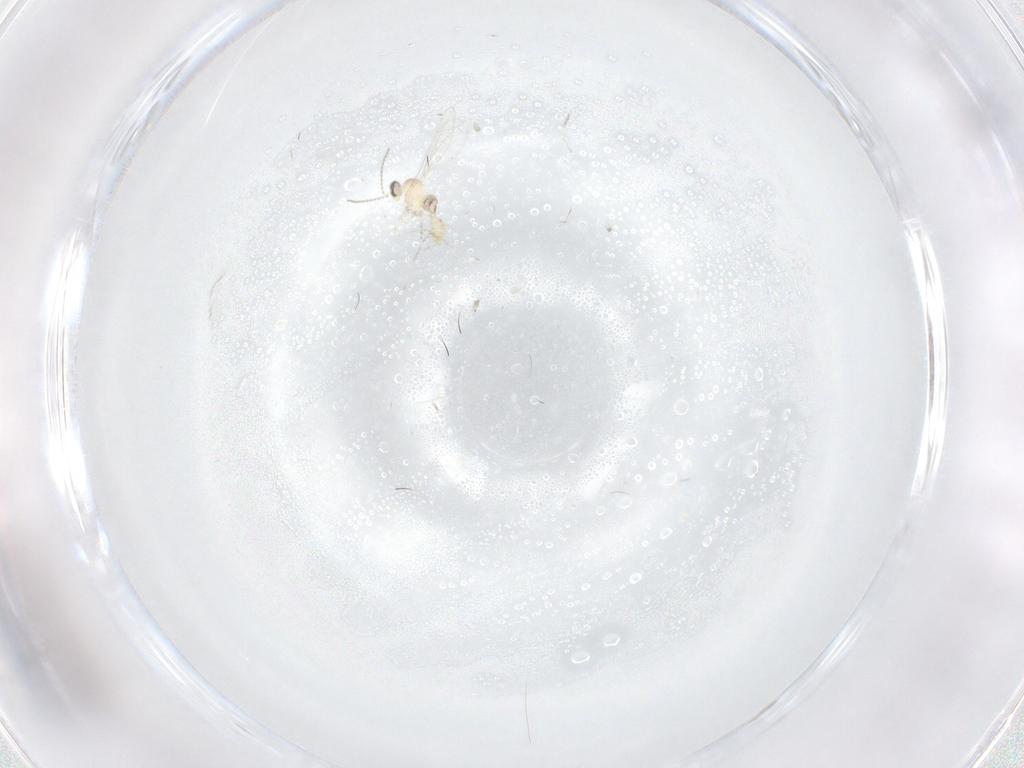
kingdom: Animalia
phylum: Arthropoda
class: Insecta
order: Diptera
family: Cecidomyiidae
